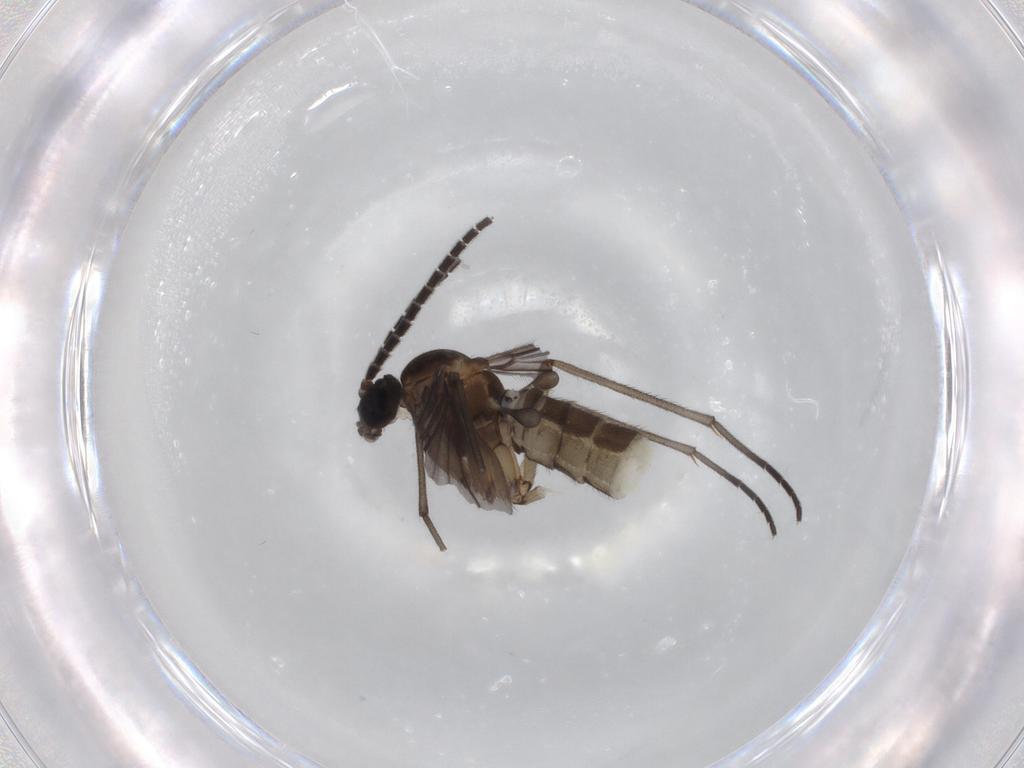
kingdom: Animalia
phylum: Arthropoda
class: Insecta
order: Diptera
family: Sciaridae
